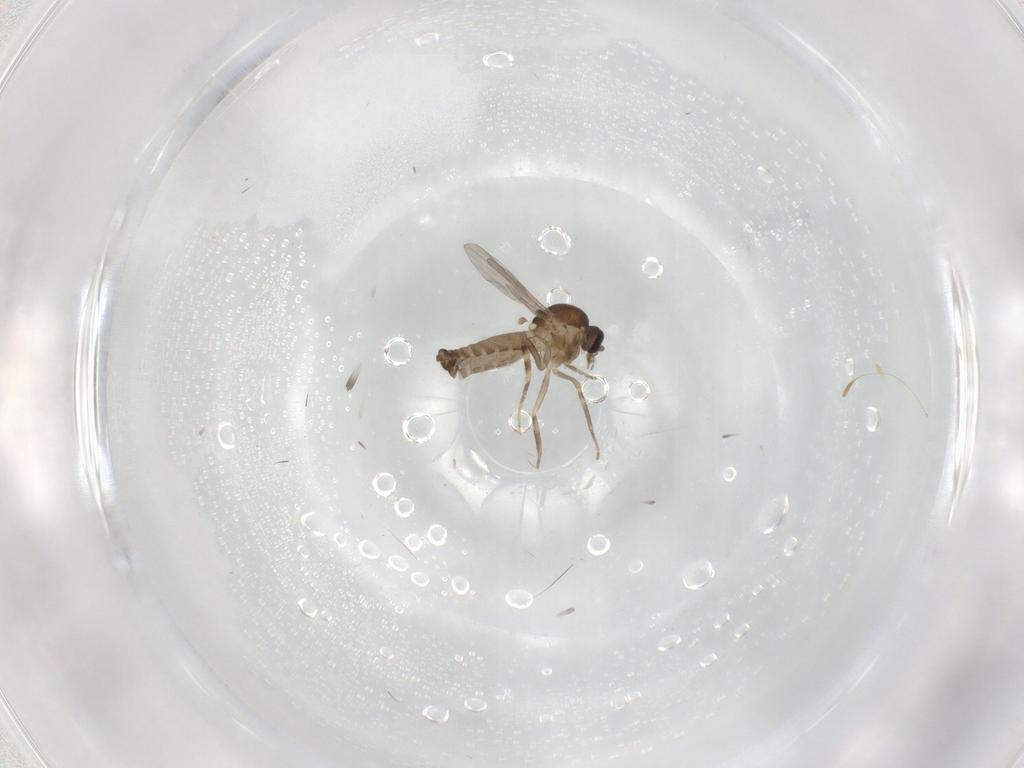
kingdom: Animalia
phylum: Arthropoda
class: Insecta
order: Diptera
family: Ceratopogonidae
